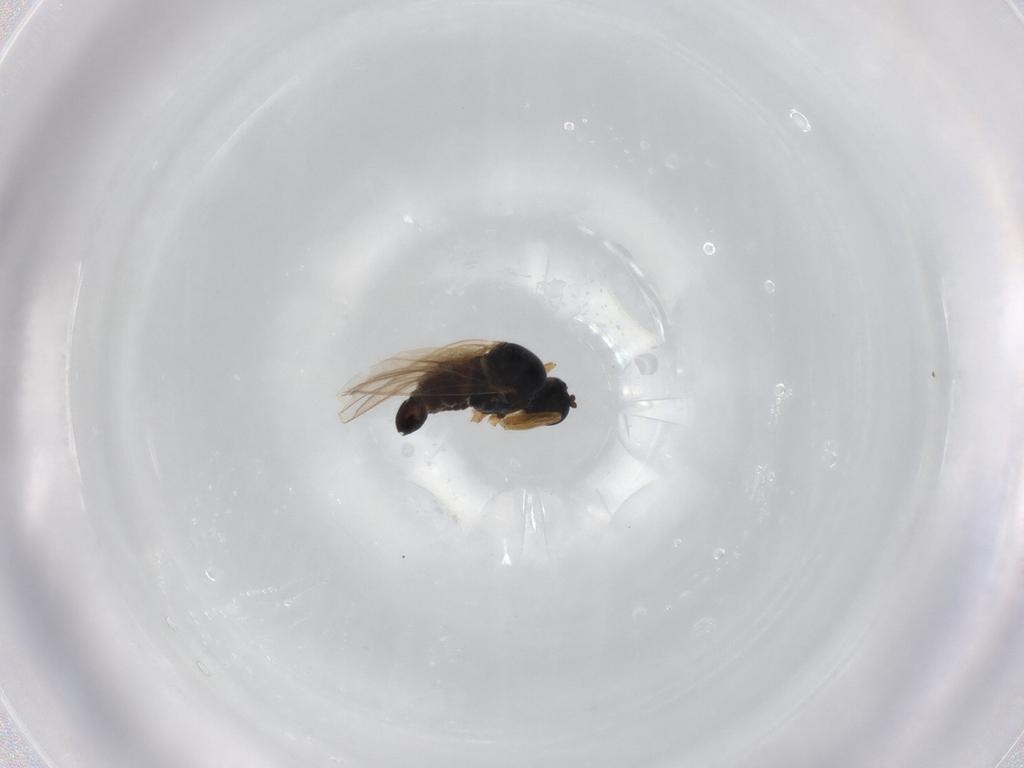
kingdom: Animalia
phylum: Arthropoda
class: Insecta
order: Diptera
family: Hybotidae
